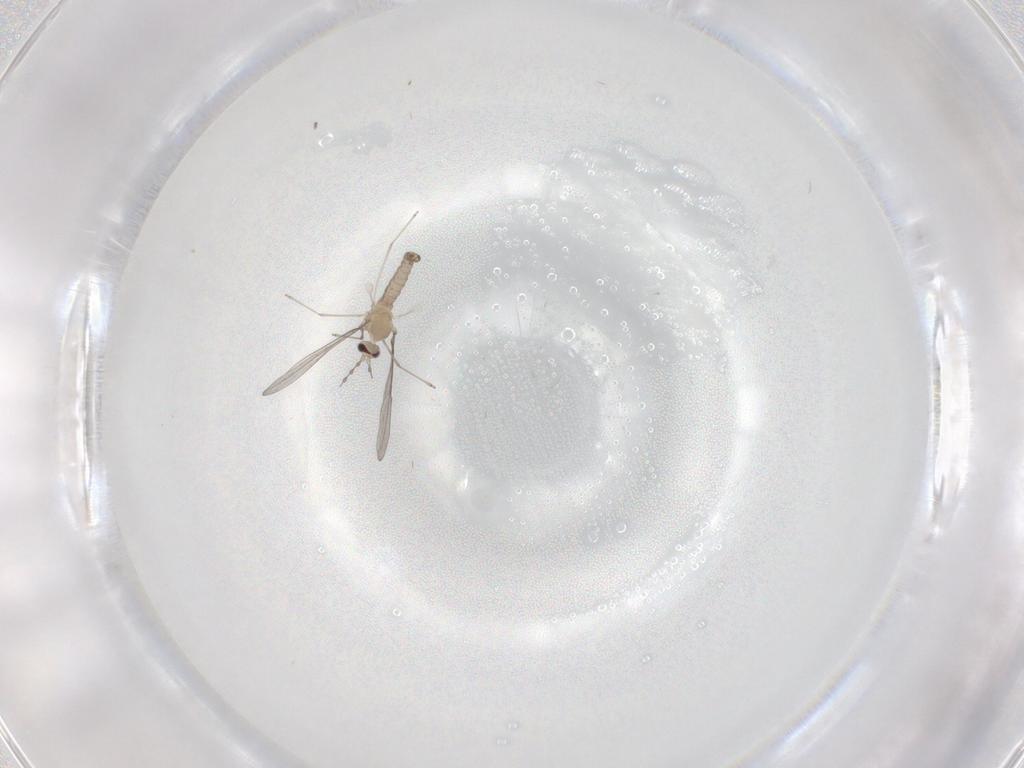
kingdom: Animalia
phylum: Arthropoda
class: Insecta
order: Diptera
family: Cecidomyiidae
